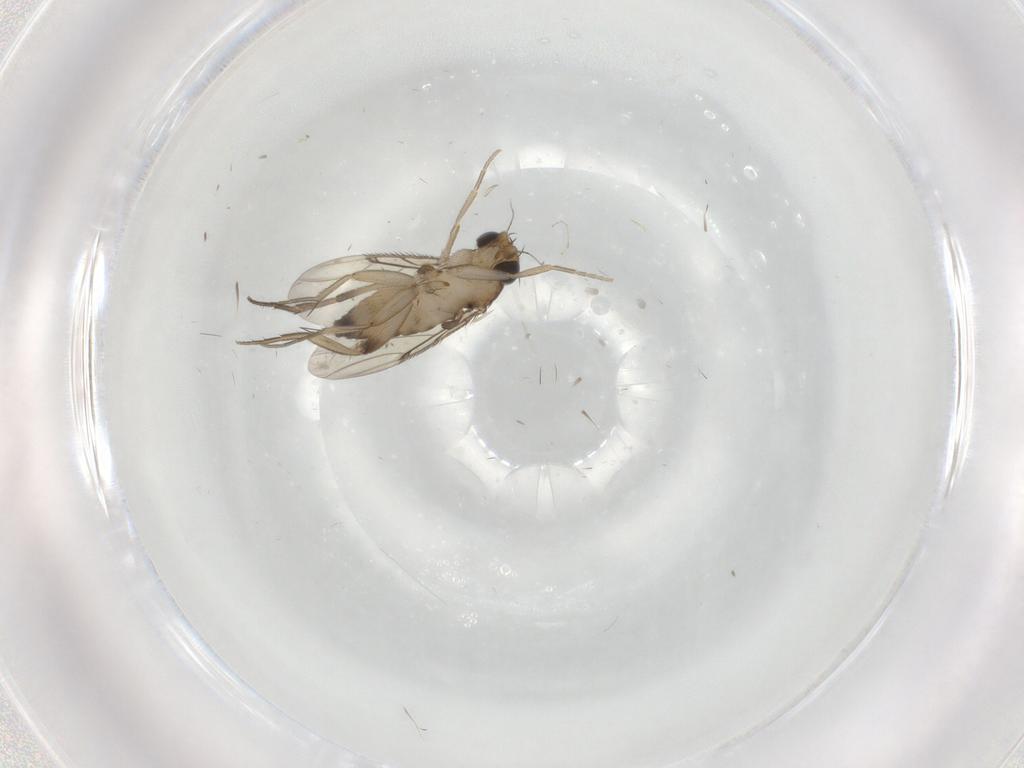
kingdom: Animalia
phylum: Arthropoda
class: Insecta
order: Diptera
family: Phoridae
